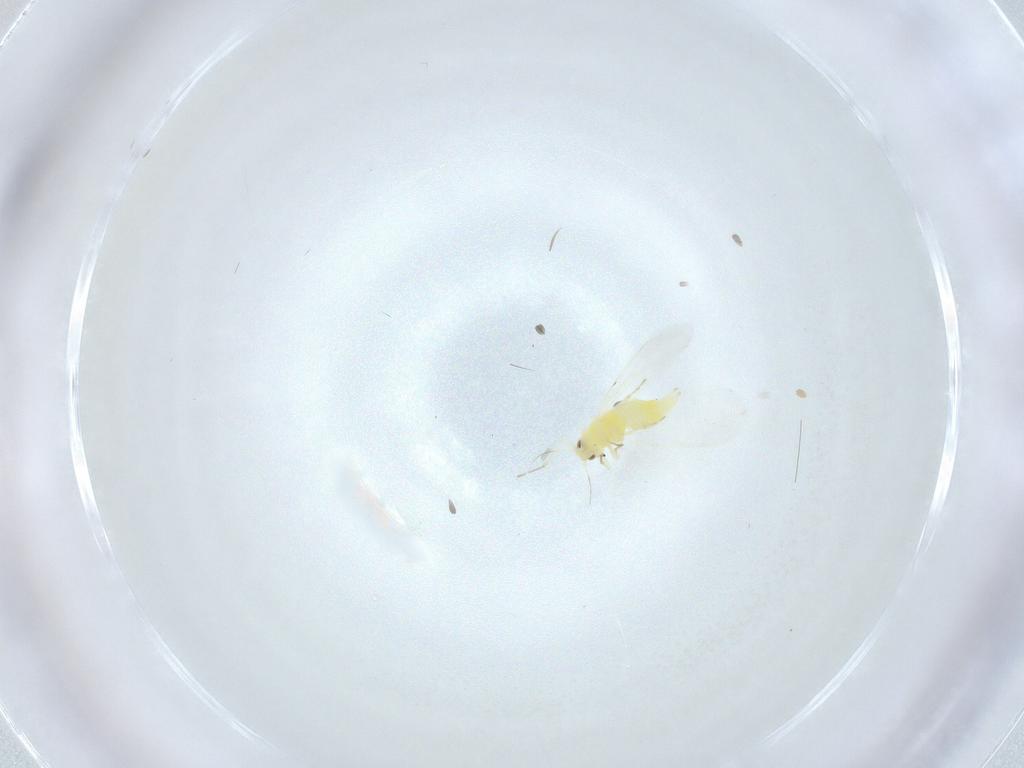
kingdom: Animalia
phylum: Arthropoda
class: Insecta
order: Hemiptera
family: Aleyrodidae
